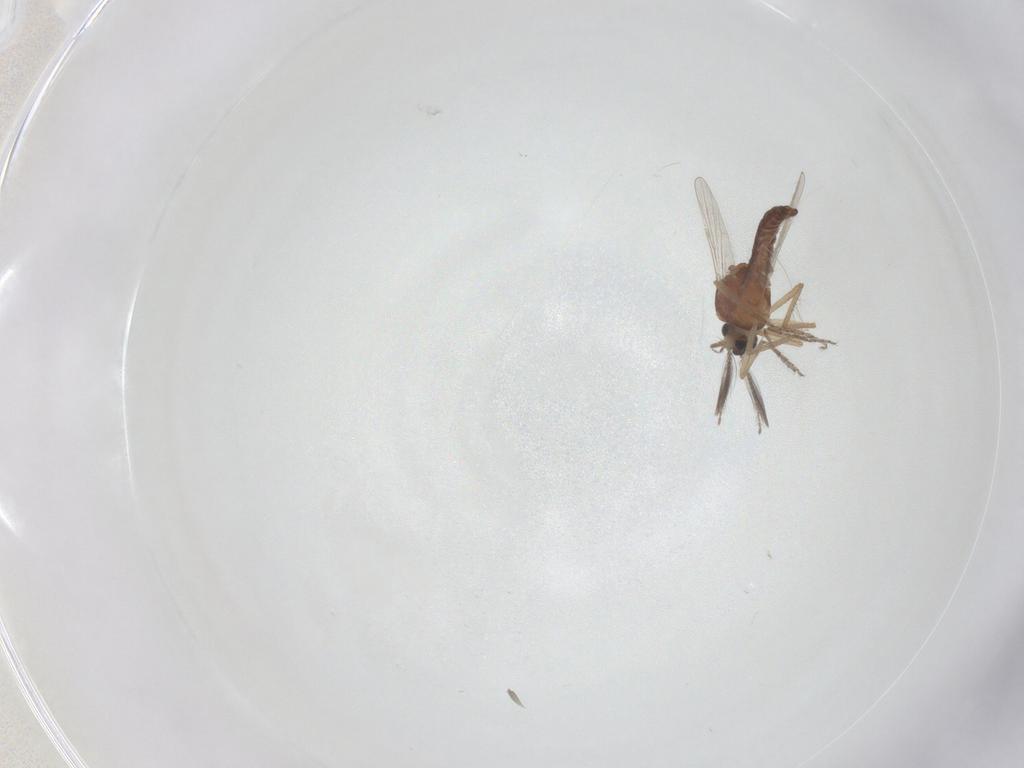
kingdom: Animalia
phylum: Arthropoda
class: Insecta
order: Diptera
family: Ceratopogonidae
